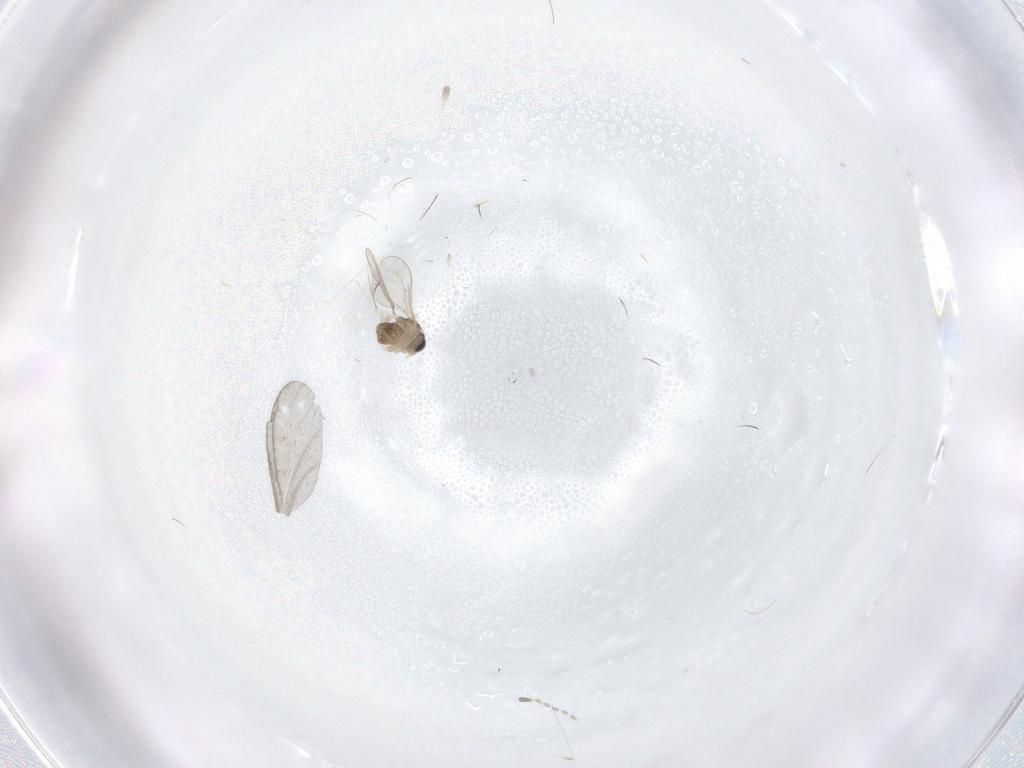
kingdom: Animalia
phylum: Arthropoda
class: Insecta
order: Diptera
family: Cecidomyiidae
